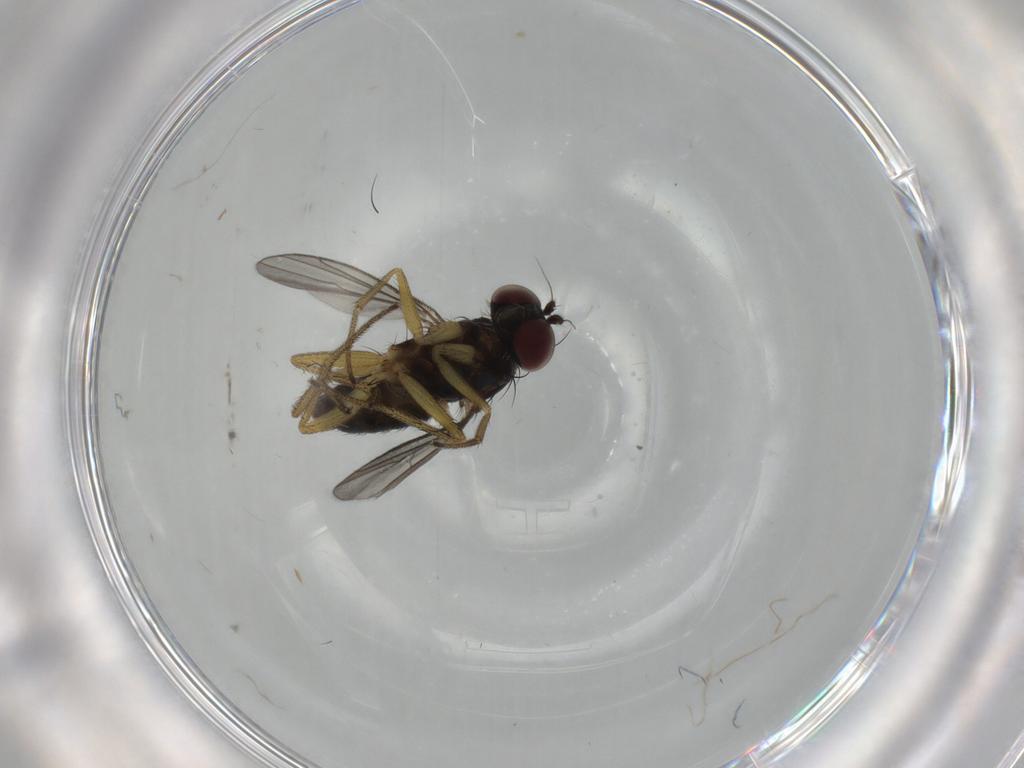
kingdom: Animalia
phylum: Arthropoda
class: Insecta
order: Diptera
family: Dolichopodidae
